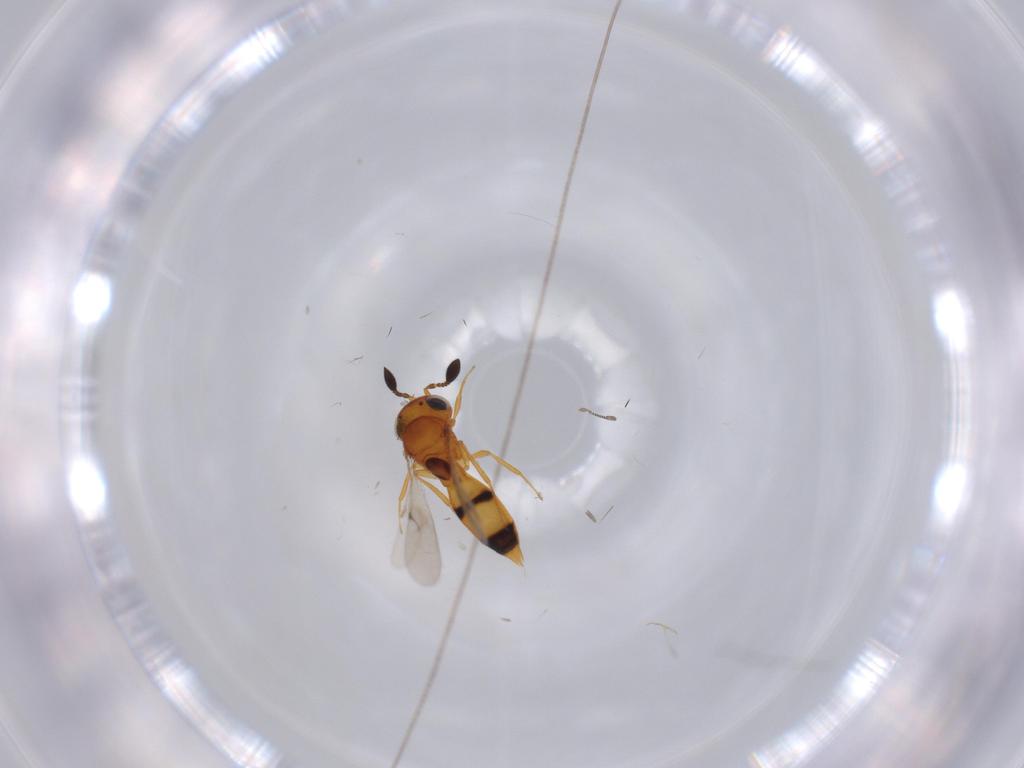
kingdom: Animalia
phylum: Arthropoda
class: Insecta
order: Hymenoptera
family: Scelionidae
